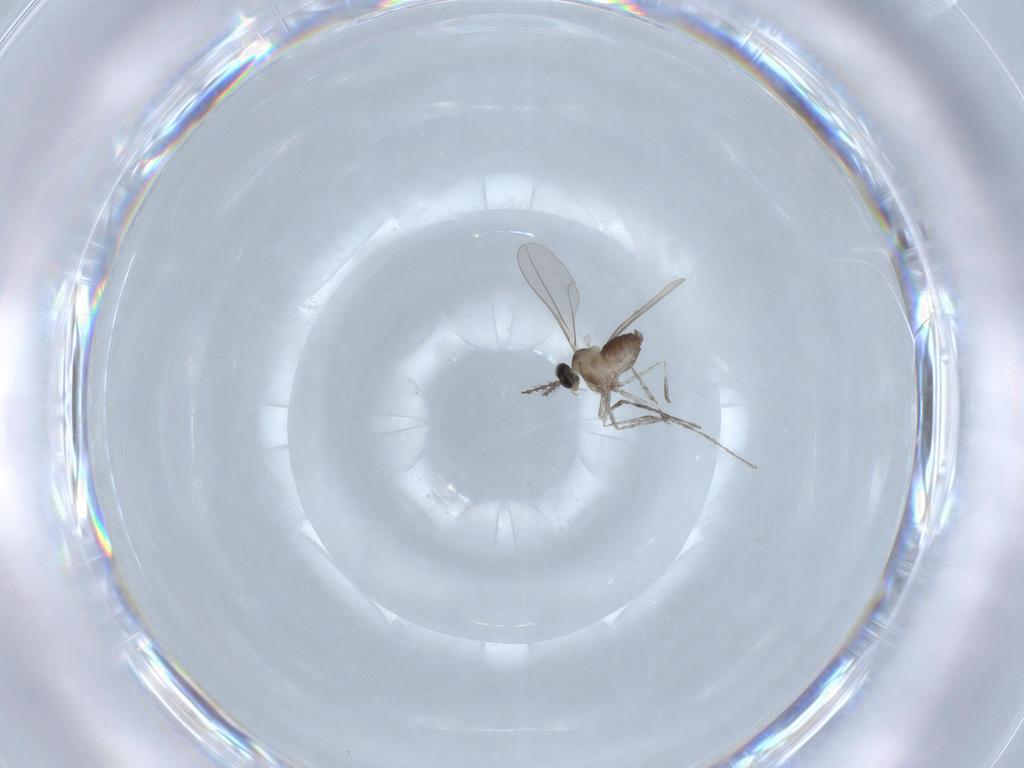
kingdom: Animalia
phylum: Arthropoda
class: Insecta
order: Diptera
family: Cecidomyiidae
